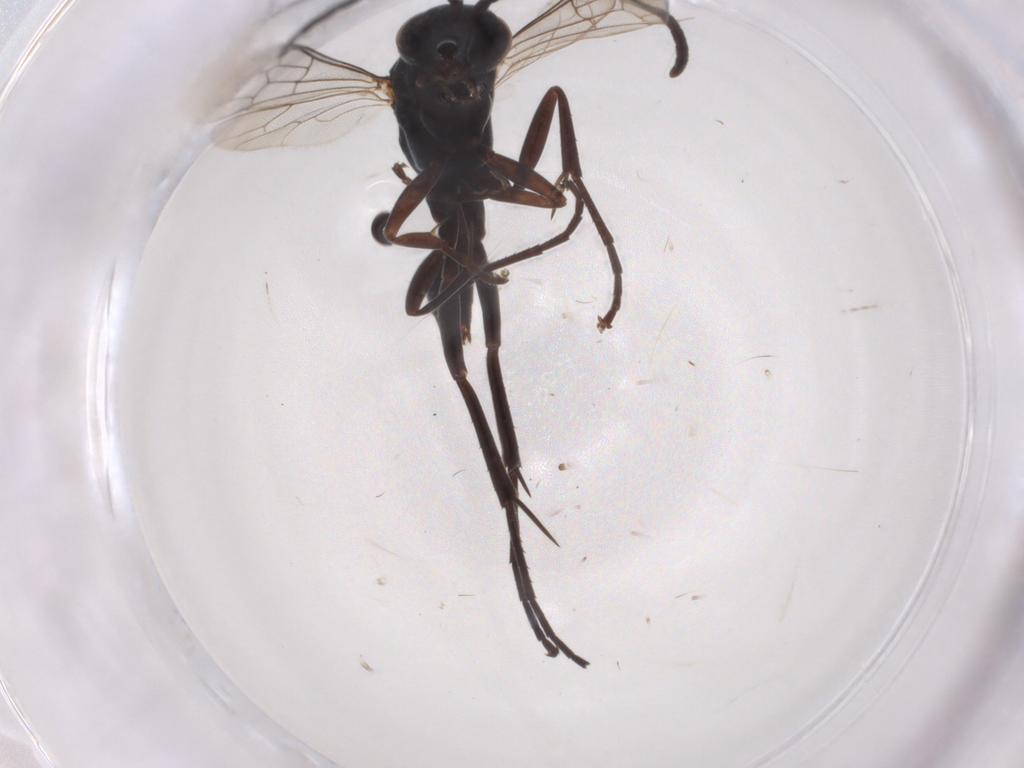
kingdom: Animalia
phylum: Arthropoda
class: Insecta
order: Hymenoptera
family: Pompilidae
